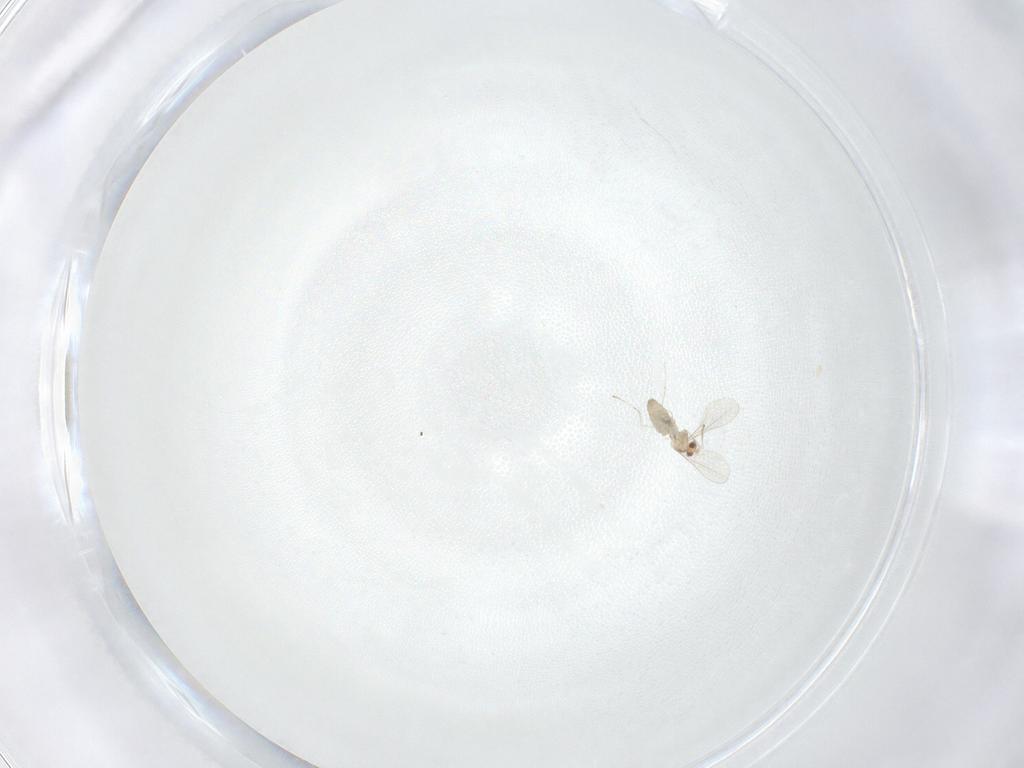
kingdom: Animalia
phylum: Arthropoda
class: Insecta
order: Diptera
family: Cecidomyiidae
